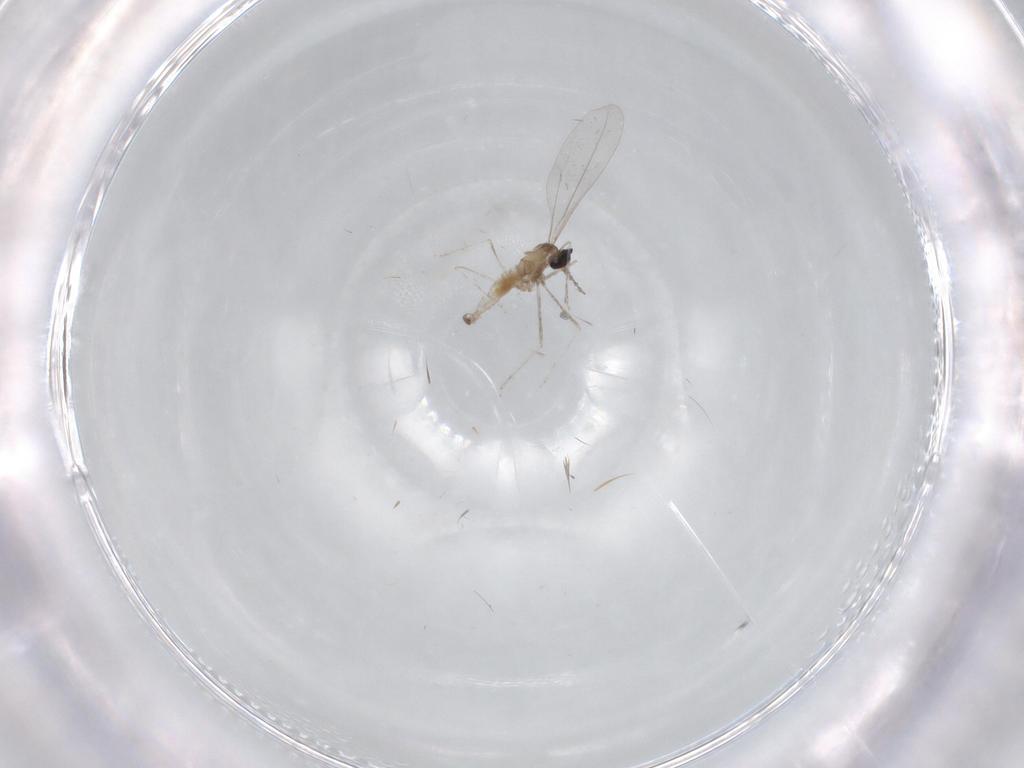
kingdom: Animalia
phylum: Arthropoda
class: Insecta
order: Diptera
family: Cecidomyiidae
